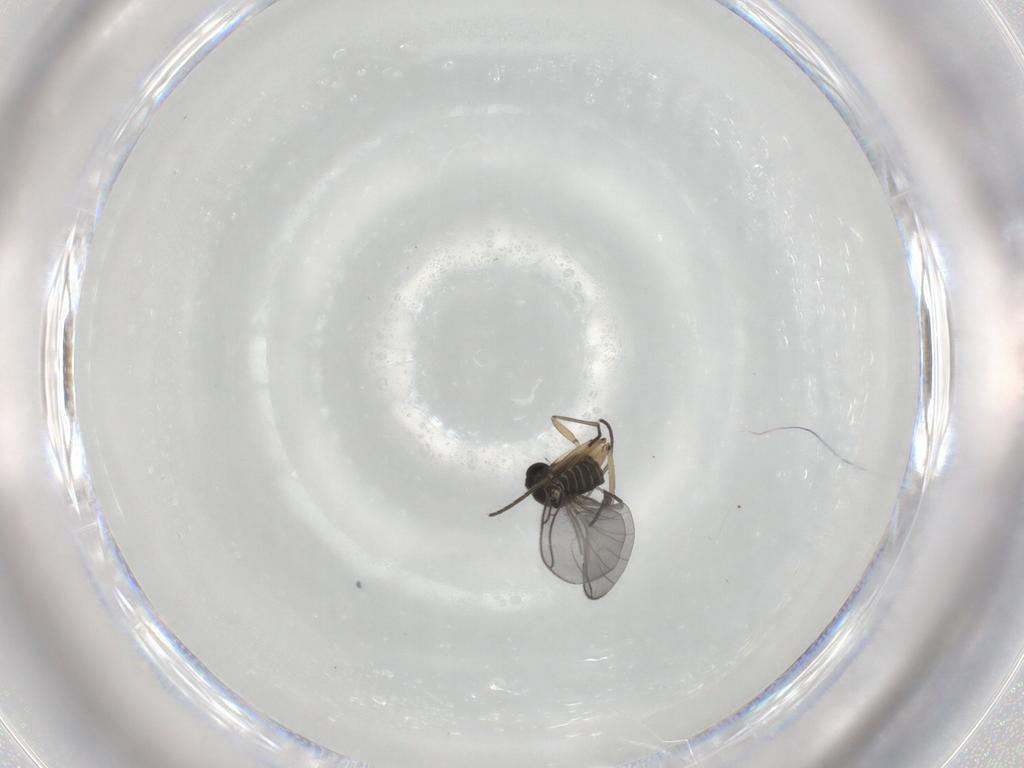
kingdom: Animalia
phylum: Arthropoda
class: Insecta
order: Diptera
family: Sciaridae
